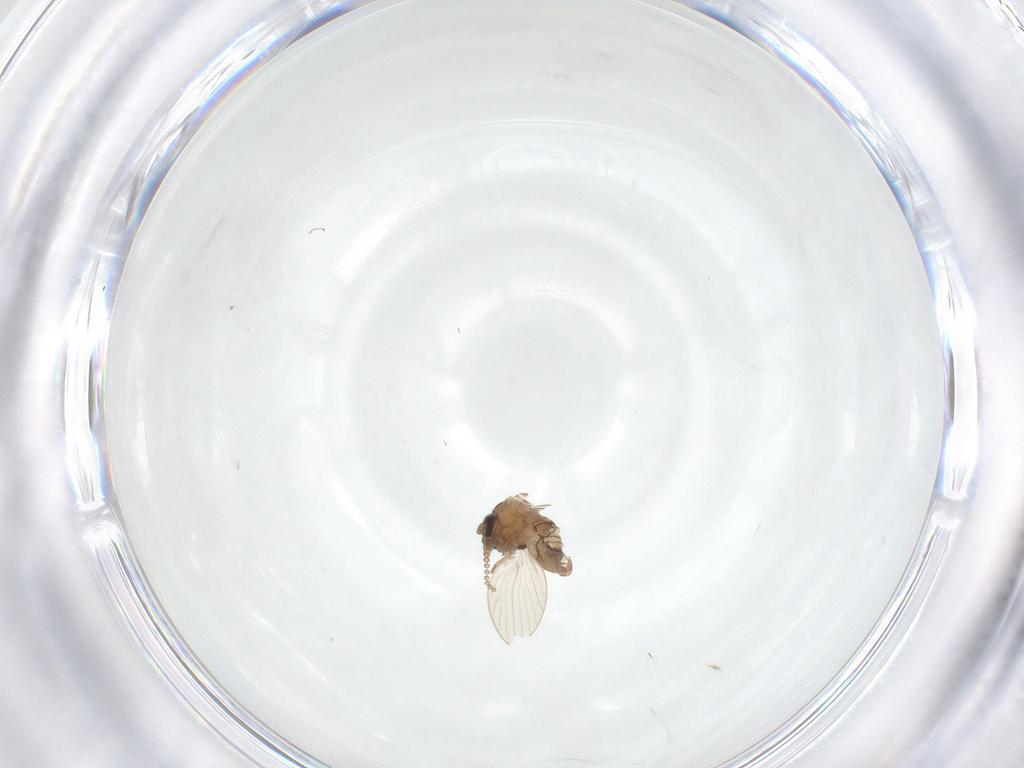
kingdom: Animalia
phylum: Arthropoda
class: Insecta
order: Diptera
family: Psychodidae
